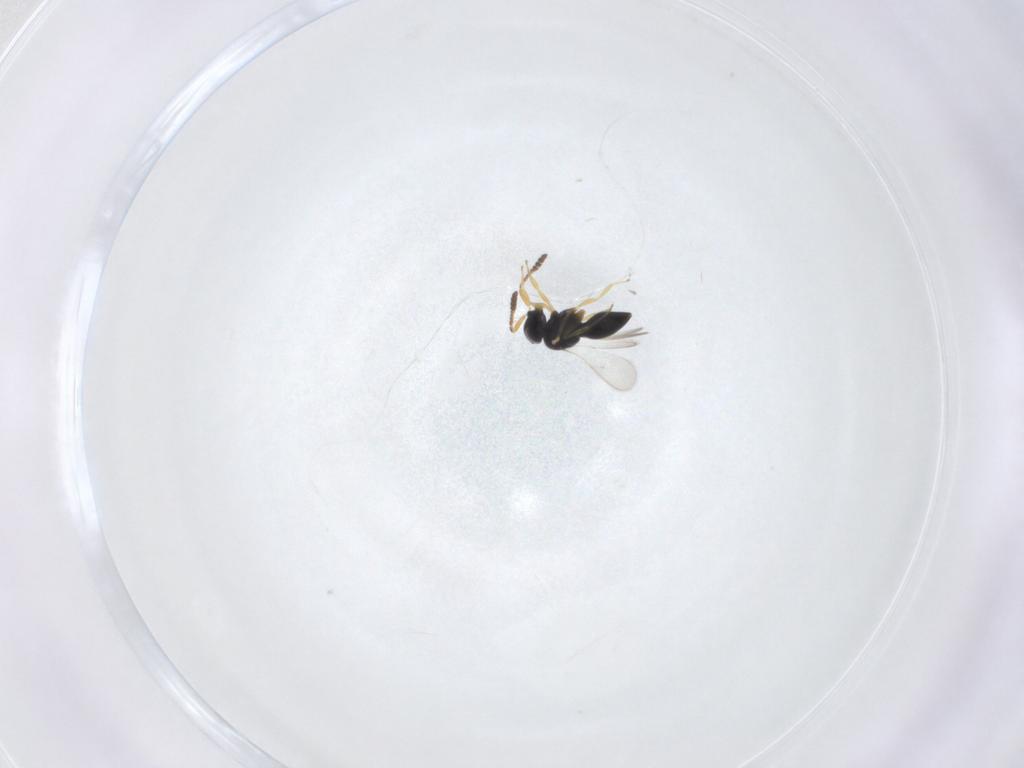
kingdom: Animalia
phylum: Arthropoda
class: Insecta
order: Hymenoptera
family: Scelionidae
